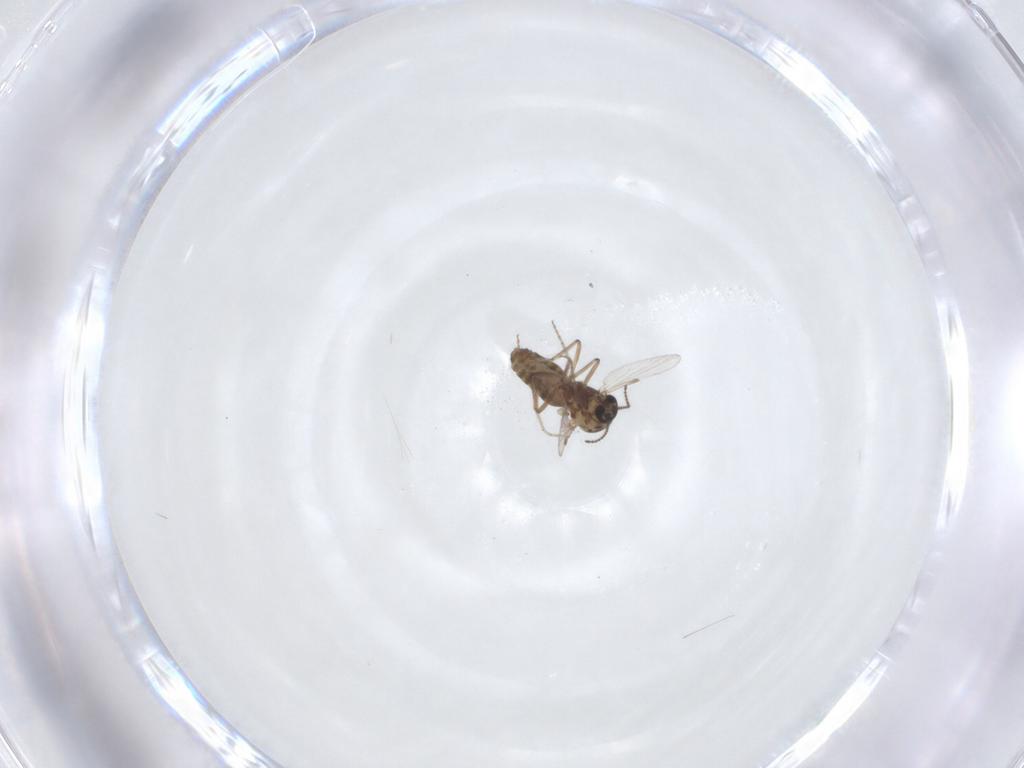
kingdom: Animalia
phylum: Arthropoda
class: Insecta
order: Diptera
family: Ceratopogonidae
